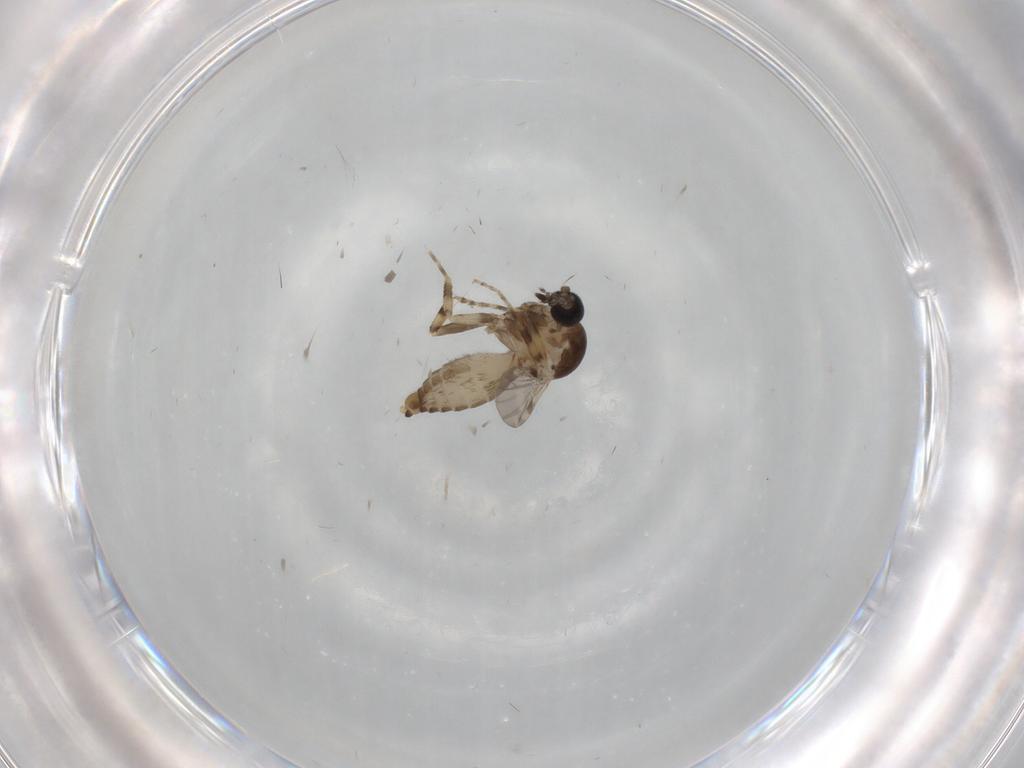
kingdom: Animalia
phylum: Arthropoda
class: Insecta
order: Diptera
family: Ceratopogonidae
